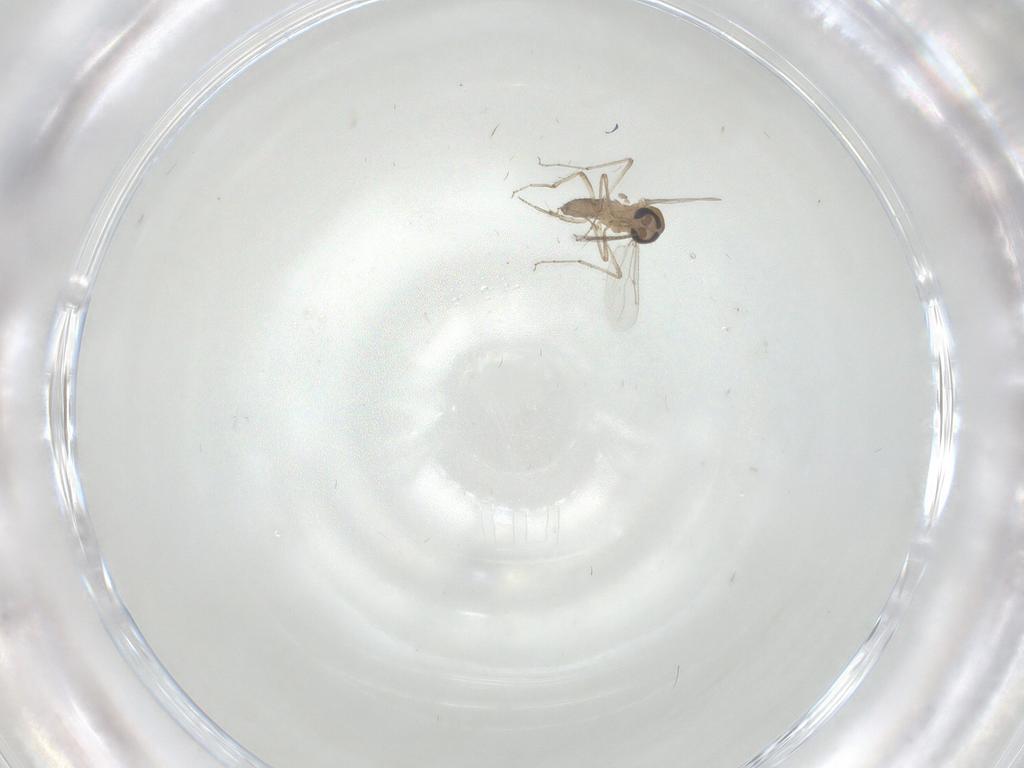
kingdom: Animalia
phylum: Arthropoda
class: Insecta
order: Diptera
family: Ceratopogonidae
